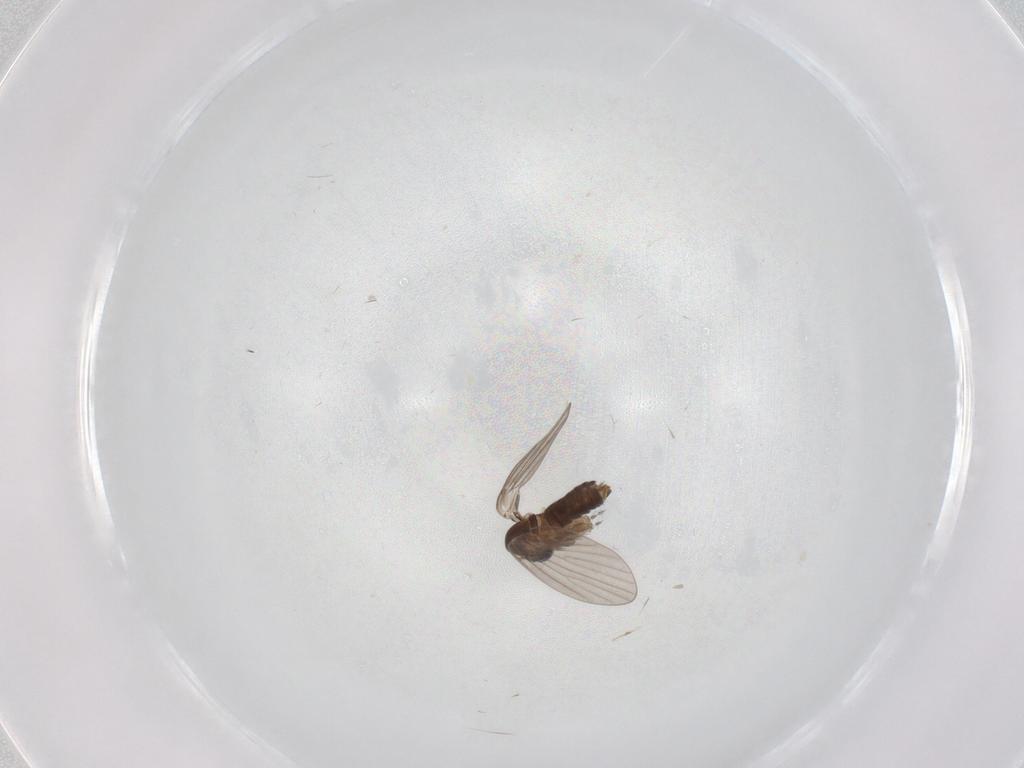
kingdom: Animalia
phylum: Arthropoda
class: Insecta
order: Diptera
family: Chironomidae
